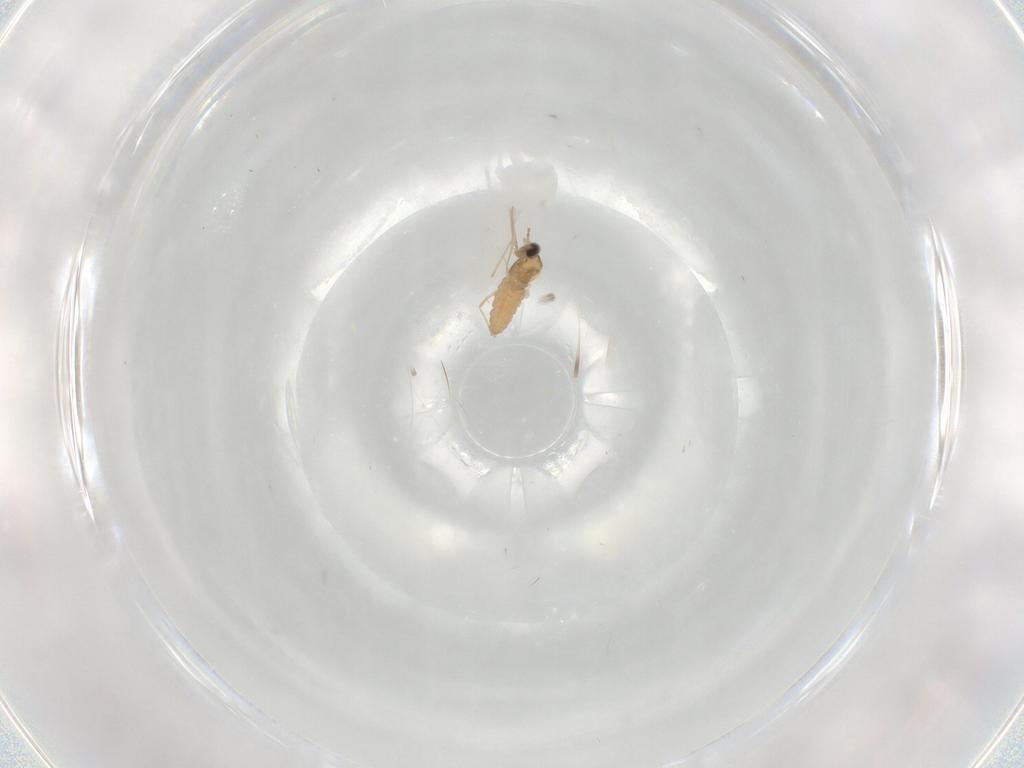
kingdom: Animalia
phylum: Arthropoda
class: Insecta
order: Diptera
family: Cecidomyiidae
